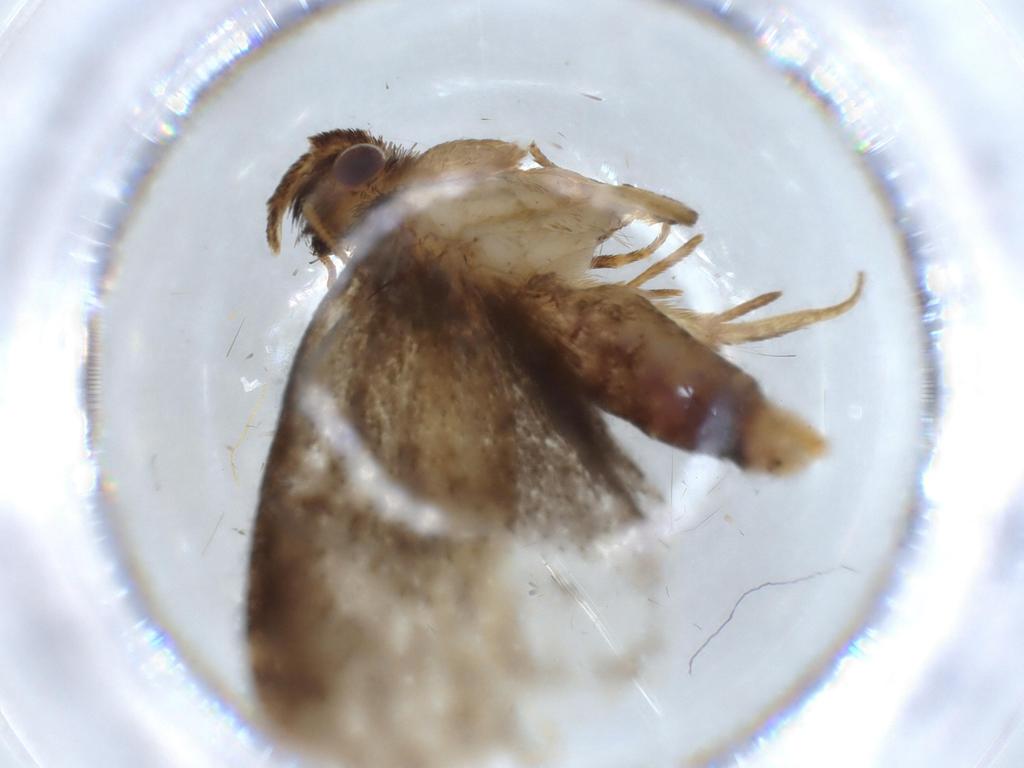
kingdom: Animalia
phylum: Arthropoda
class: Insecta
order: Lepidoptera
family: Tineidae
